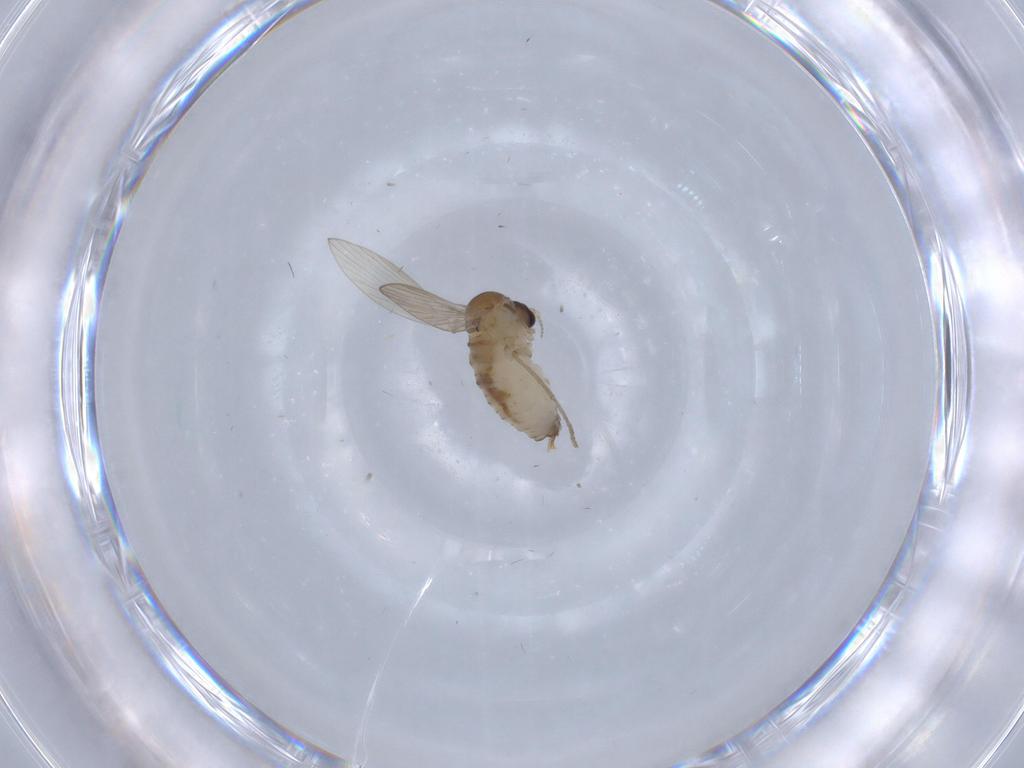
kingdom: Animalia
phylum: Arthropoda
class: Insecta
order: Diptera
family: Psychodidae
